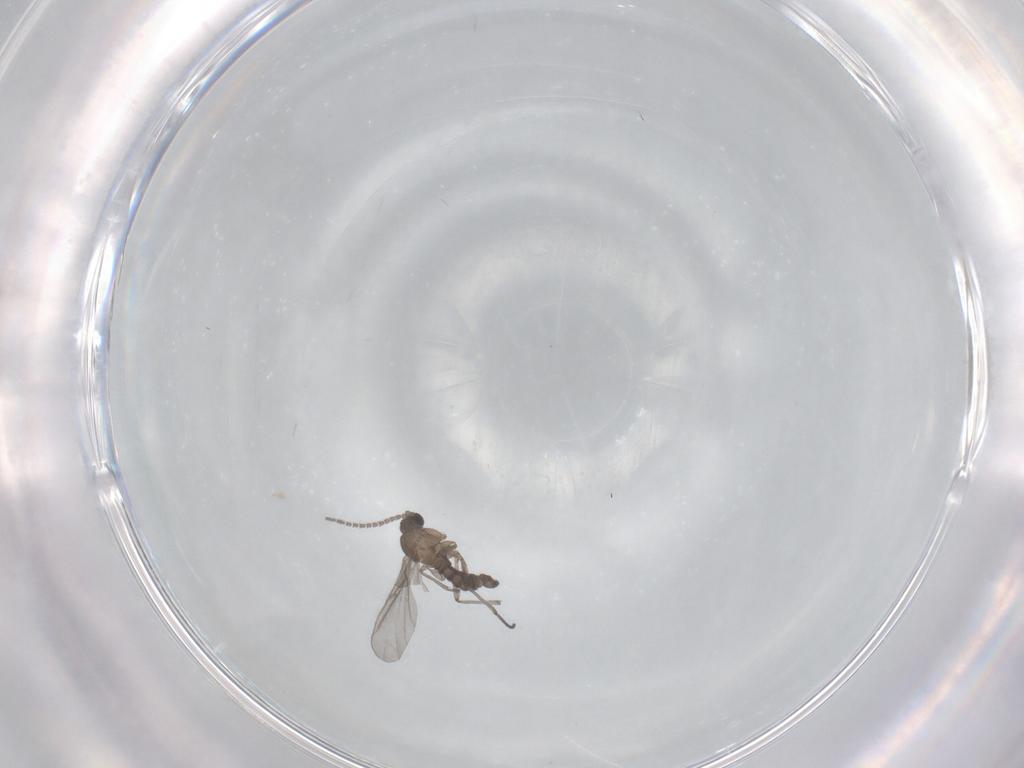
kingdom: Animalia
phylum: Arthropoda
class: Insecta
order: Diptera
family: Sciaridae
